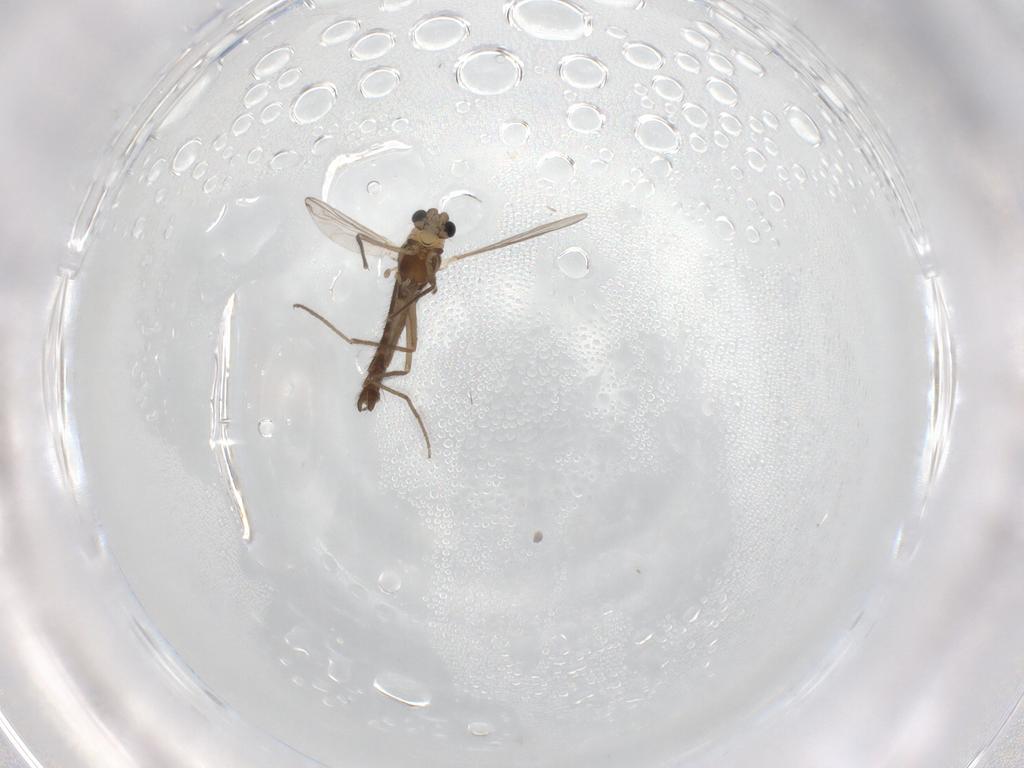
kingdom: Animalia
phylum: Arthropoda
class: Insecta
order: Diptera
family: Chironomidae
